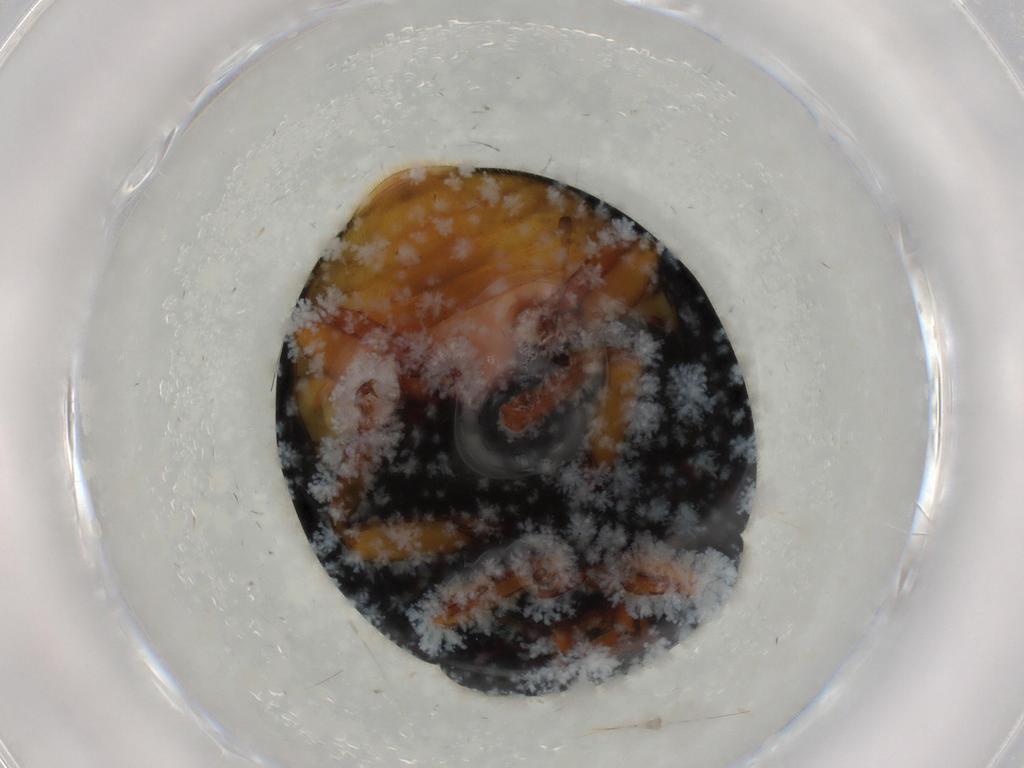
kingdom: Animalia
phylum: Arthropoda
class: Insecta
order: Coleoptera
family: Coccinellidae
